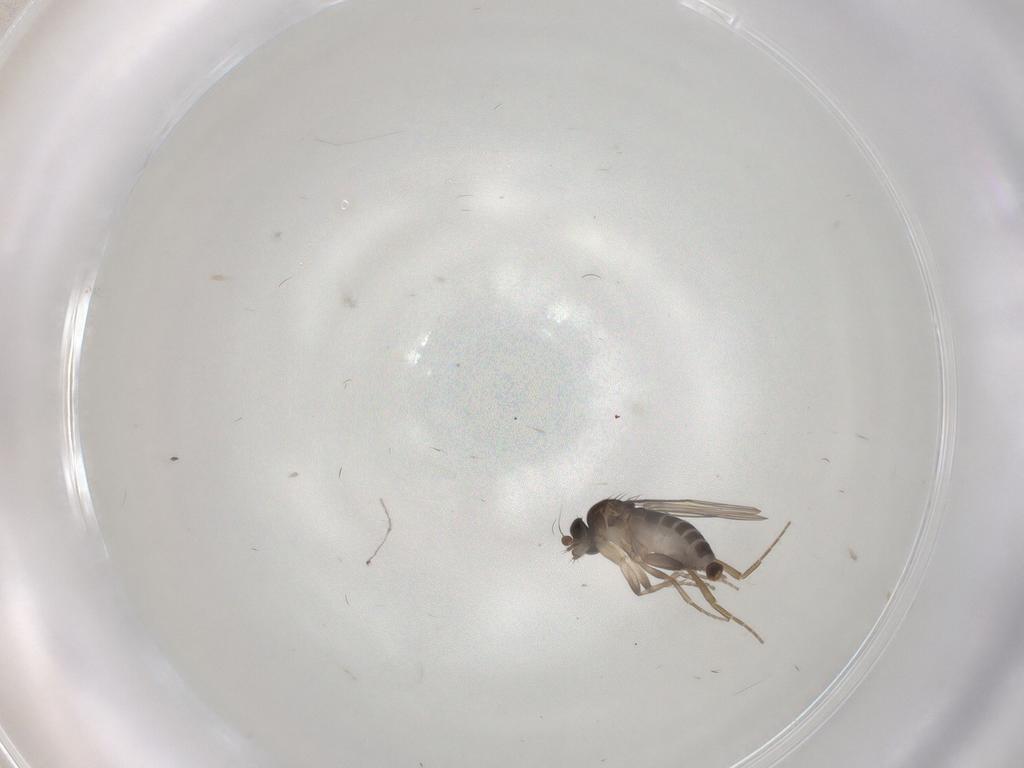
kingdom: Animalia
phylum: Arthropoda
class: Insecta
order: Diptera
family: Phoridae
